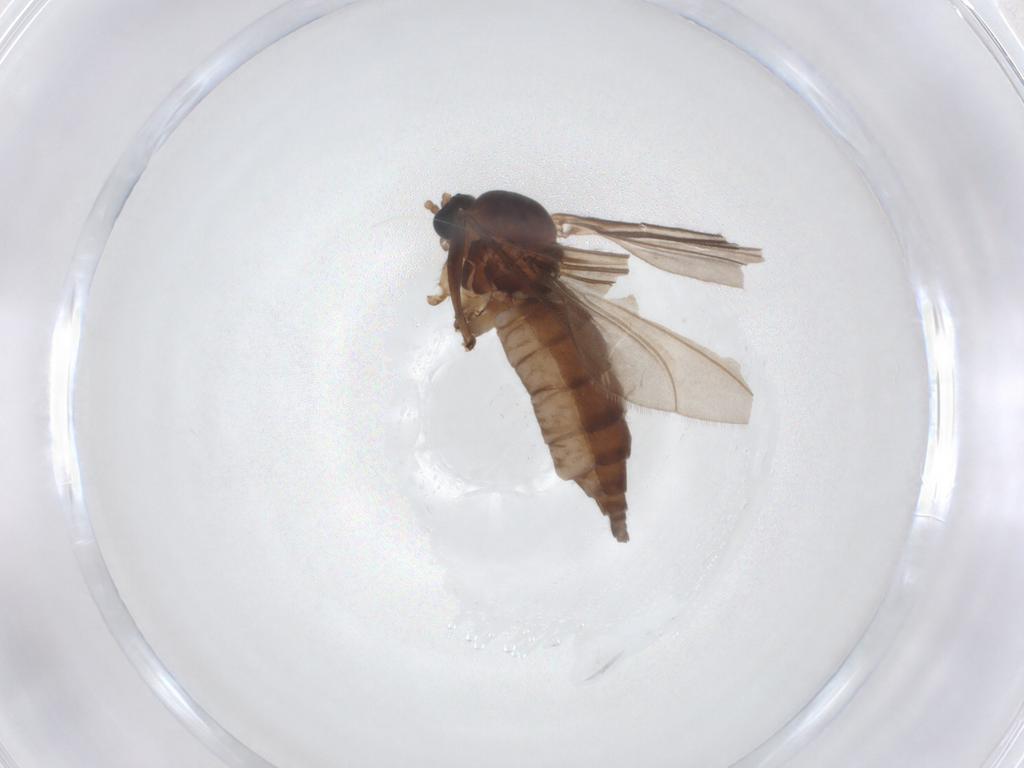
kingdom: Animalia
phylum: Arthropoda
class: Insecta
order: Diptera
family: Sciaridae
